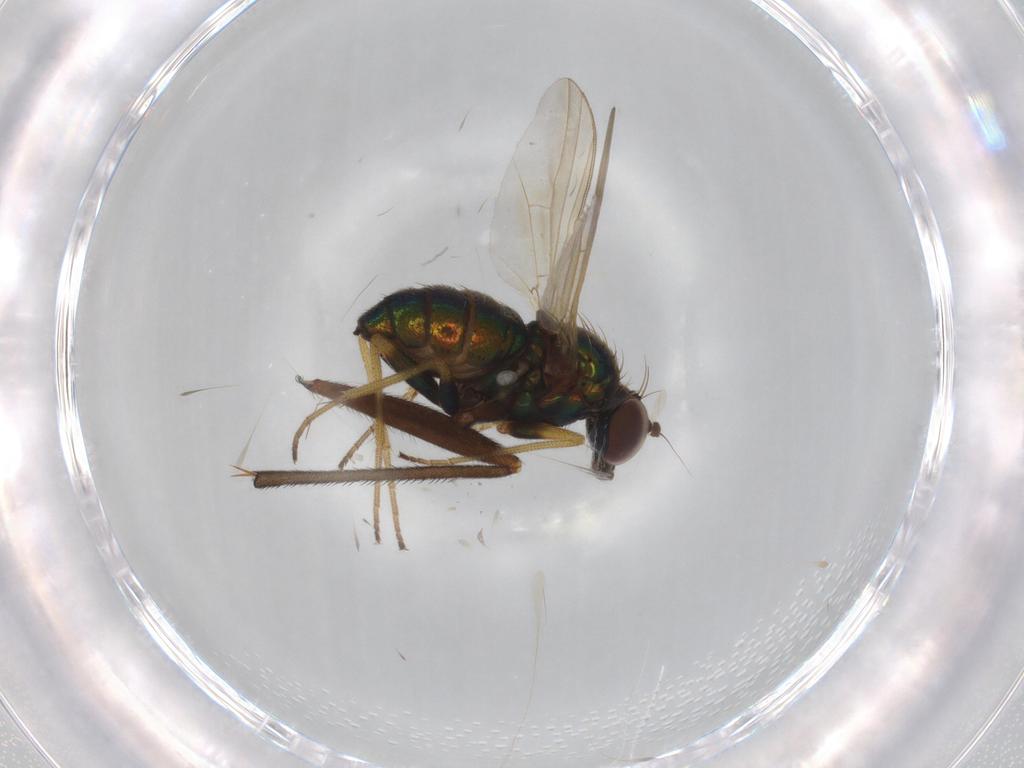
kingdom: Animalia
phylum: Arthropoda
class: Insecta
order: Diptera
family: Dolichopodidae
